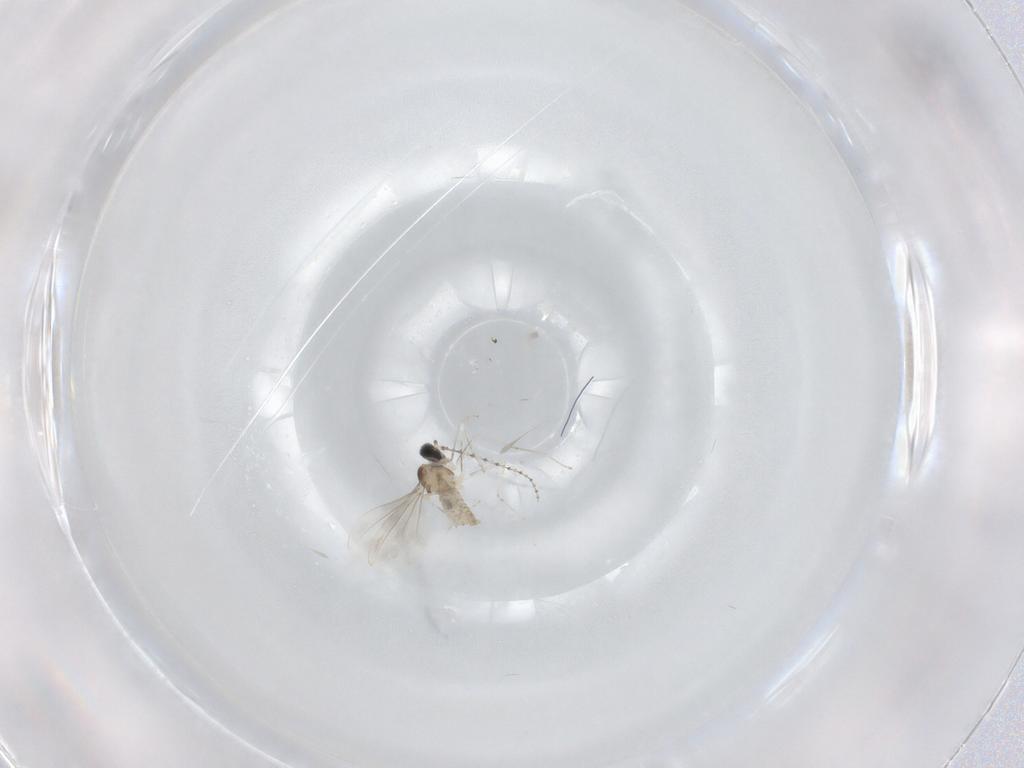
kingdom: Animalia
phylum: Arthropoda
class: Insecta
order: Diptera
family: Cecidomyiidae
